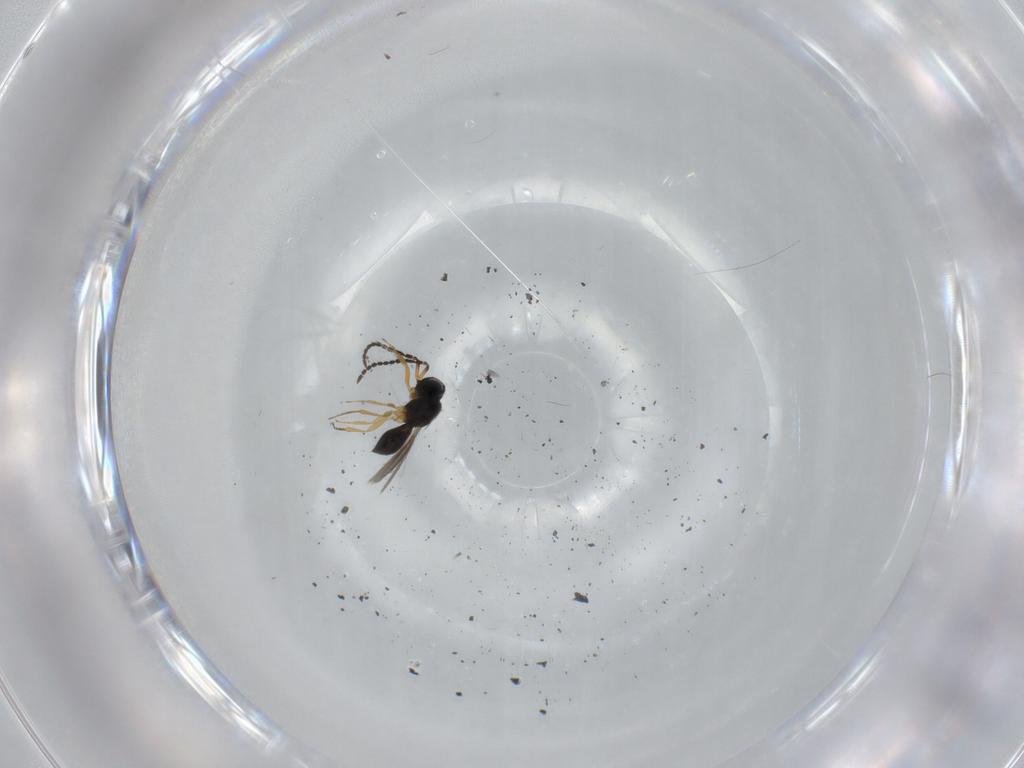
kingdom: Animalia
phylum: Arthropoda
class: Insecta
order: Hymenoptera
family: Scelionidae
